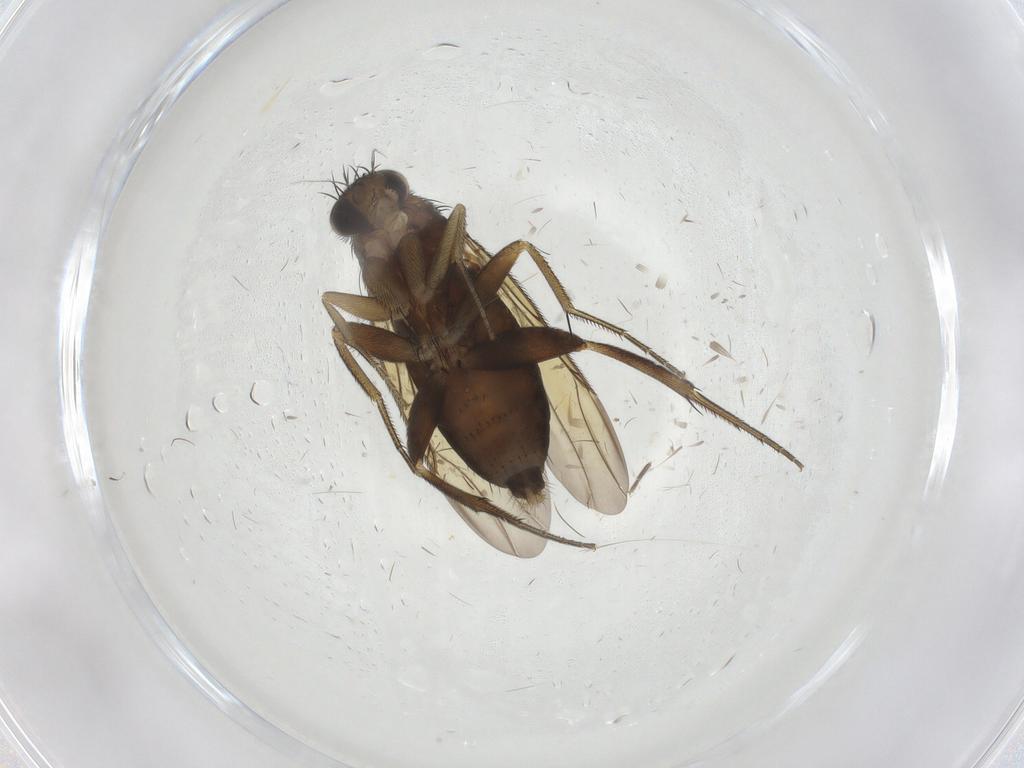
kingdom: Animalia
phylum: Arthropoda
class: Insecta
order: Diptera
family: Phoridae
